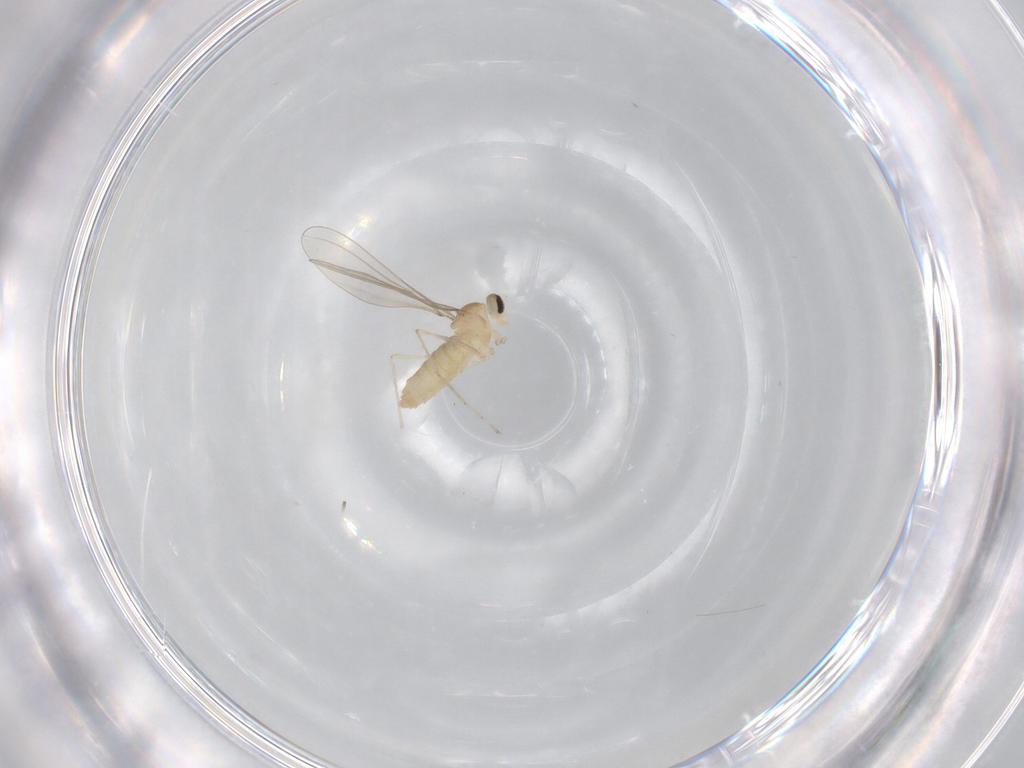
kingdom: Animalia
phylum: Arthropoda
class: Insecta
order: Diptera
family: Cecidomyiidae
